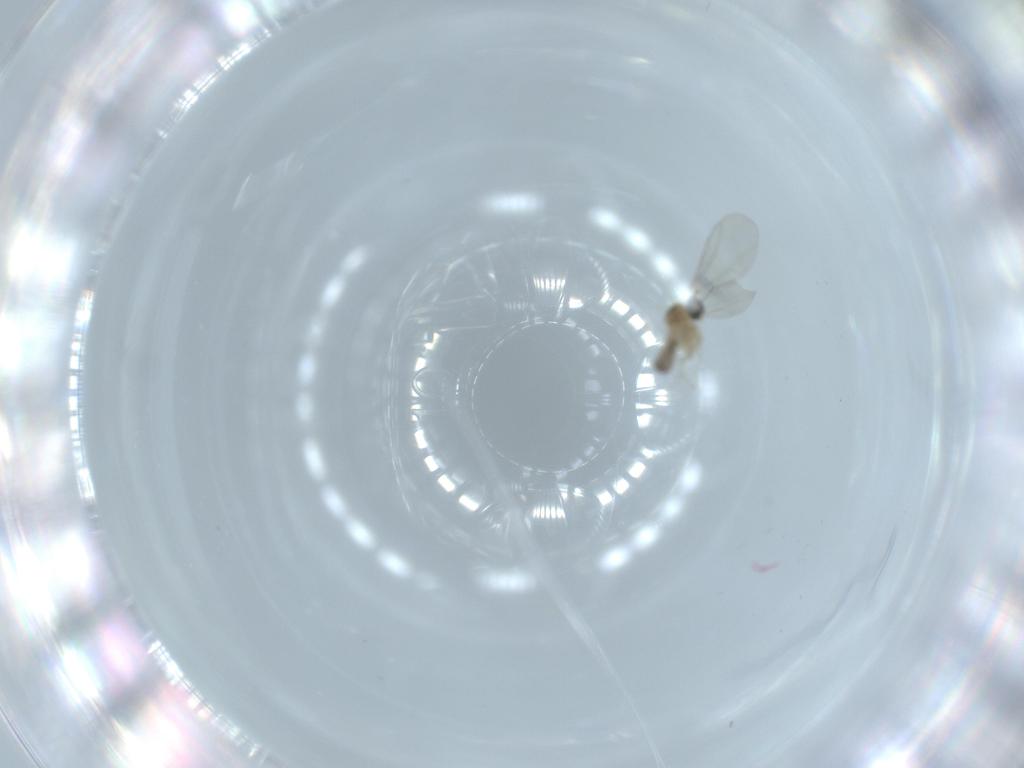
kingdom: Animalia
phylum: Arthropoda
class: Insecta
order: Diptera
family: Cecidomyiidae
